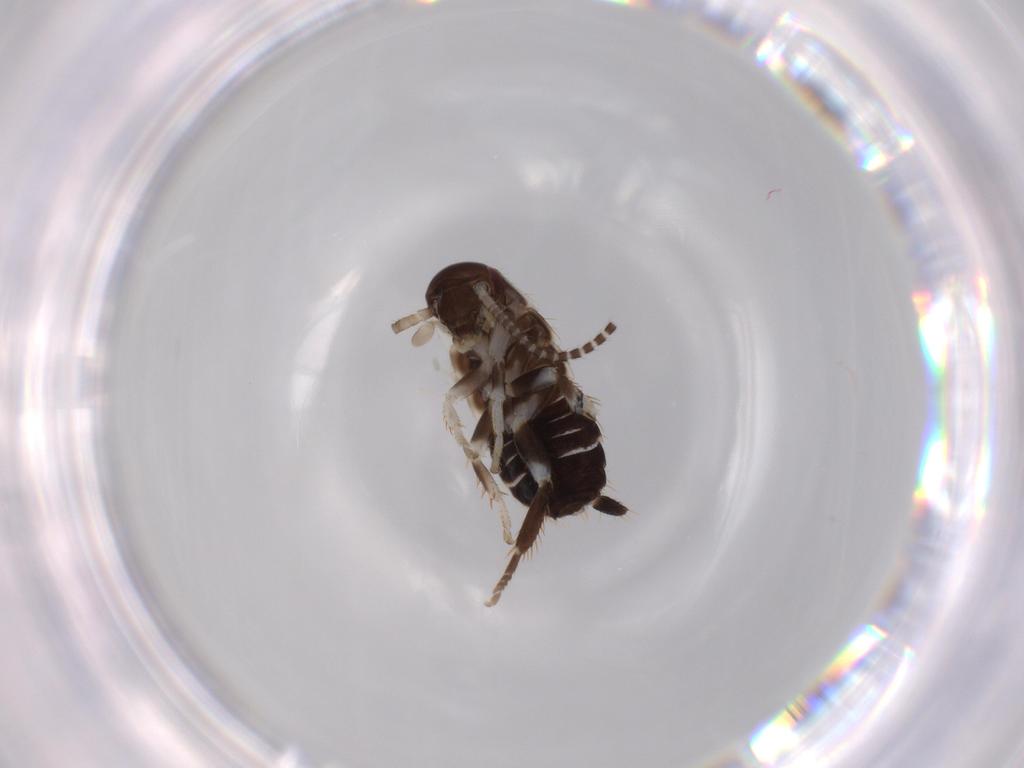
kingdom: Animalia
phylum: Arthropoda
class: Insecta
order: Blattodea
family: Ectobiidae
